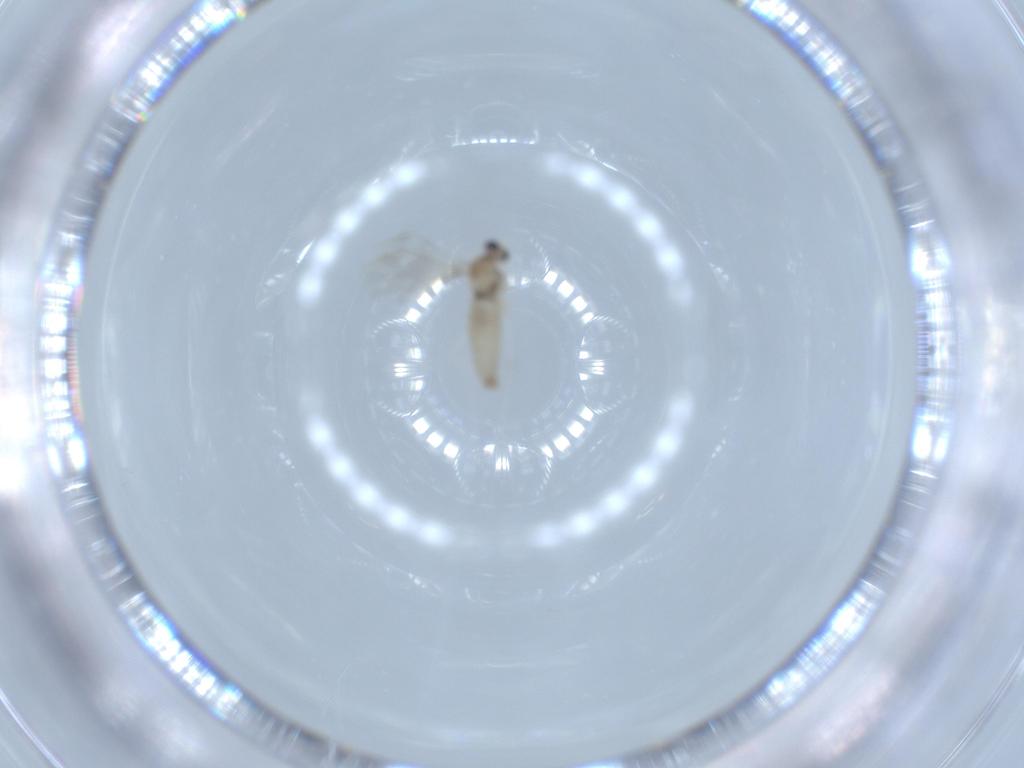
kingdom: Animalia
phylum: Arthropoda
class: Insecta
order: Diptera
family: Sciaridae
